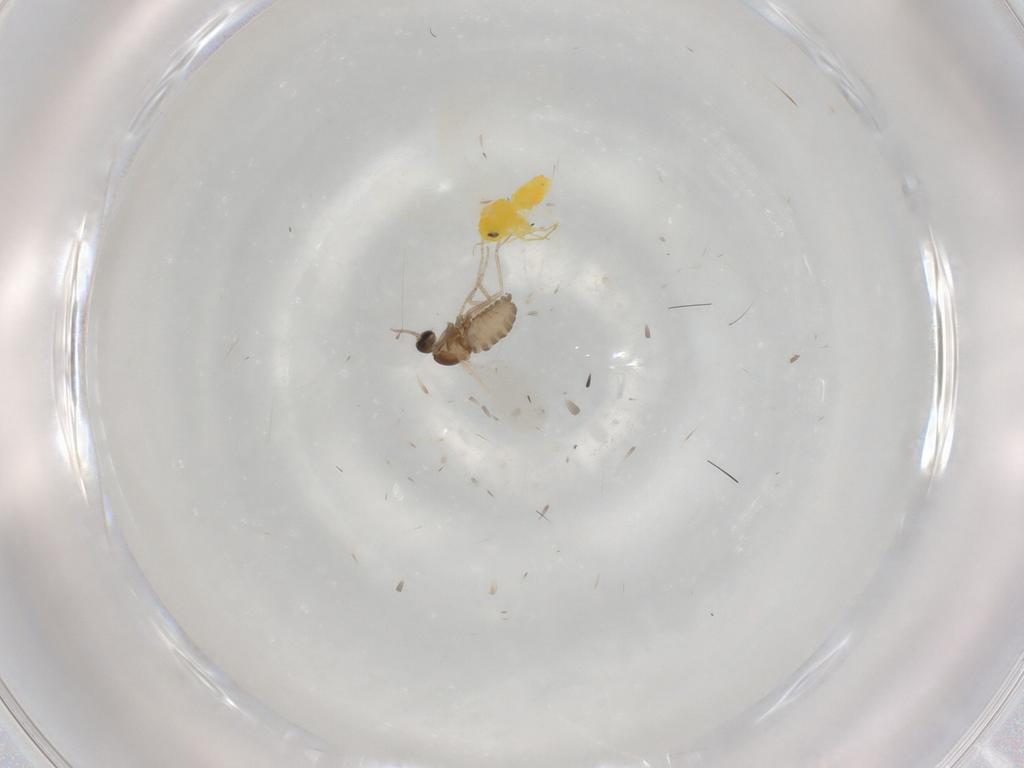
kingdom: Animalia
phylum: Arthropoda
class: Insecta
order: Diptera
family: Cecidomyiidae
